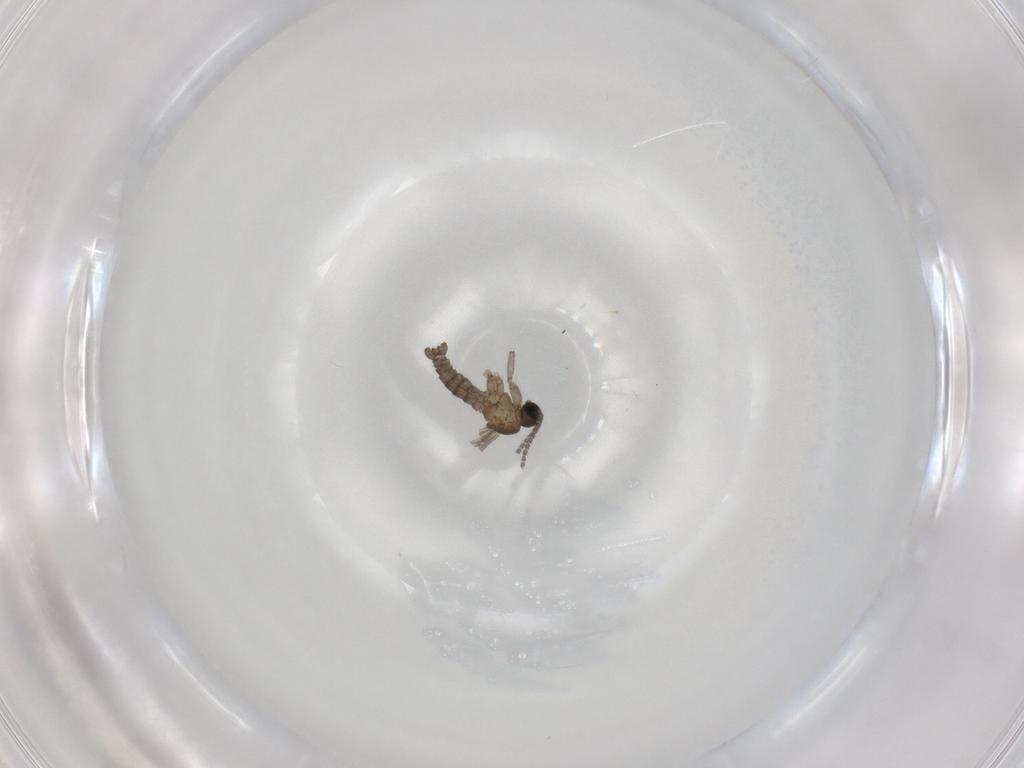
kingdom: Animalia
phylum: Arthropoda
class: Insecta
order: Diptera
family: Sciaridae
